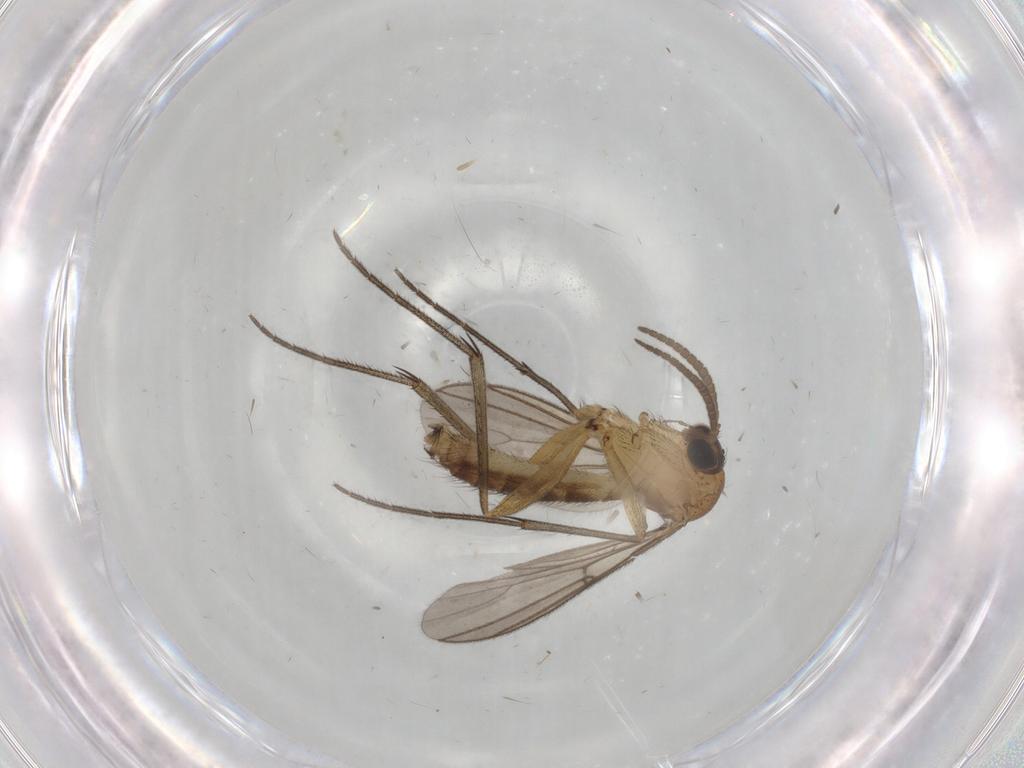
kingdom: Animalia
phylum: Arthropoda
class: Insecta
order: Diptera
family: Phoridae
